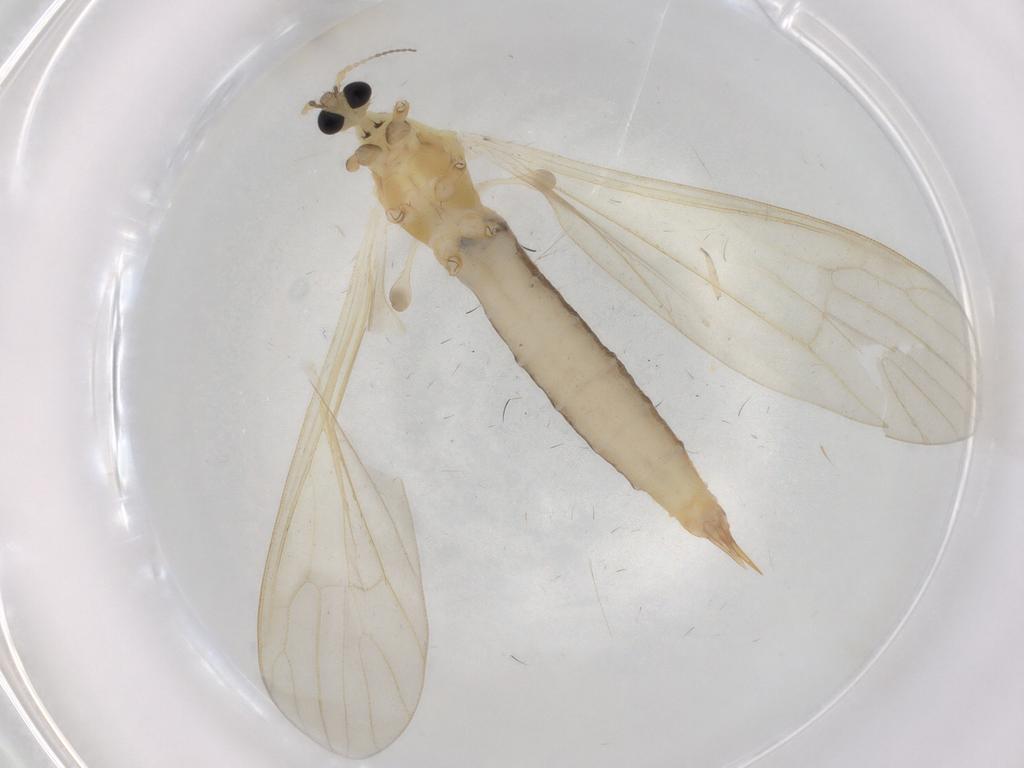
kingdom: Animalia
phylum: Arthropoda
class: Insecta
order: Diptera
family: Limoniidae
